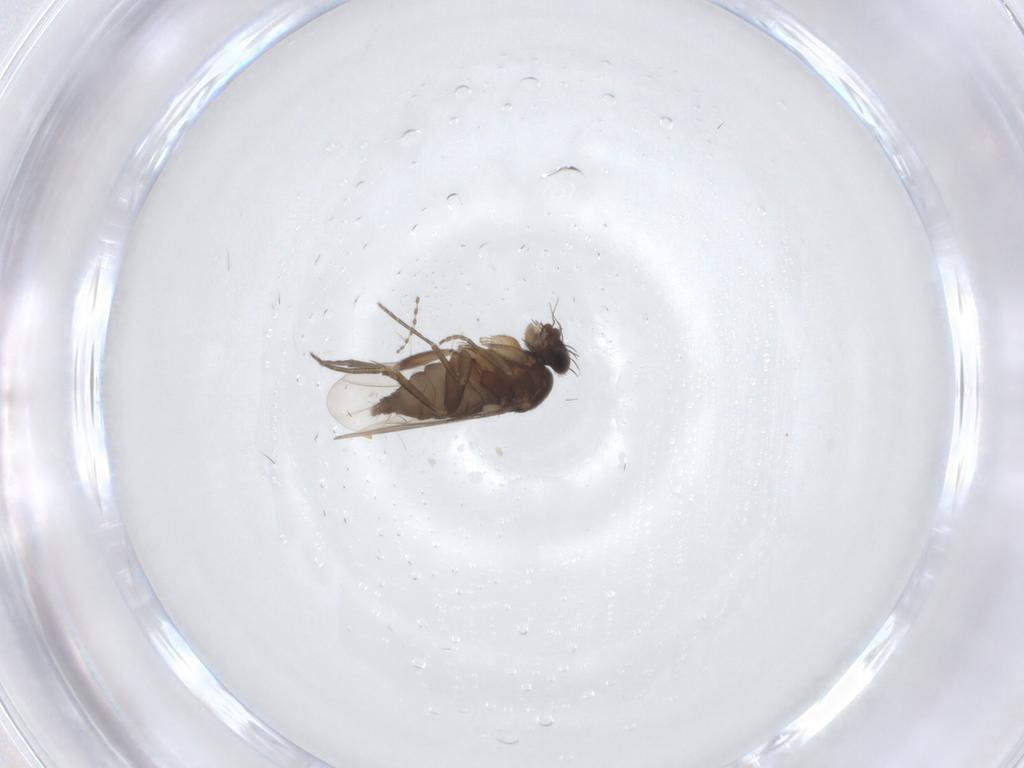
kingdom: Animalia
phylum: Arthropoda
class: Insecta
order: Diptera
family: Phoridae
